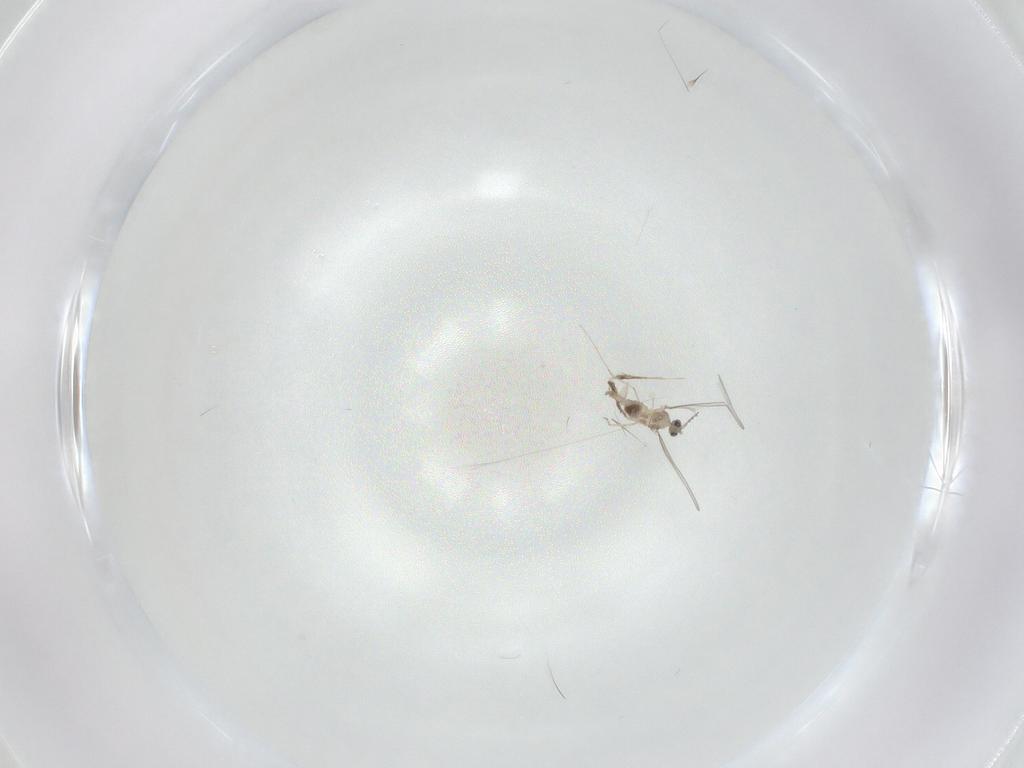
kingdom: Animalia
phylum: Arthropoda
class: Insecta
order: Diptera
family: Cecidomyiidae
